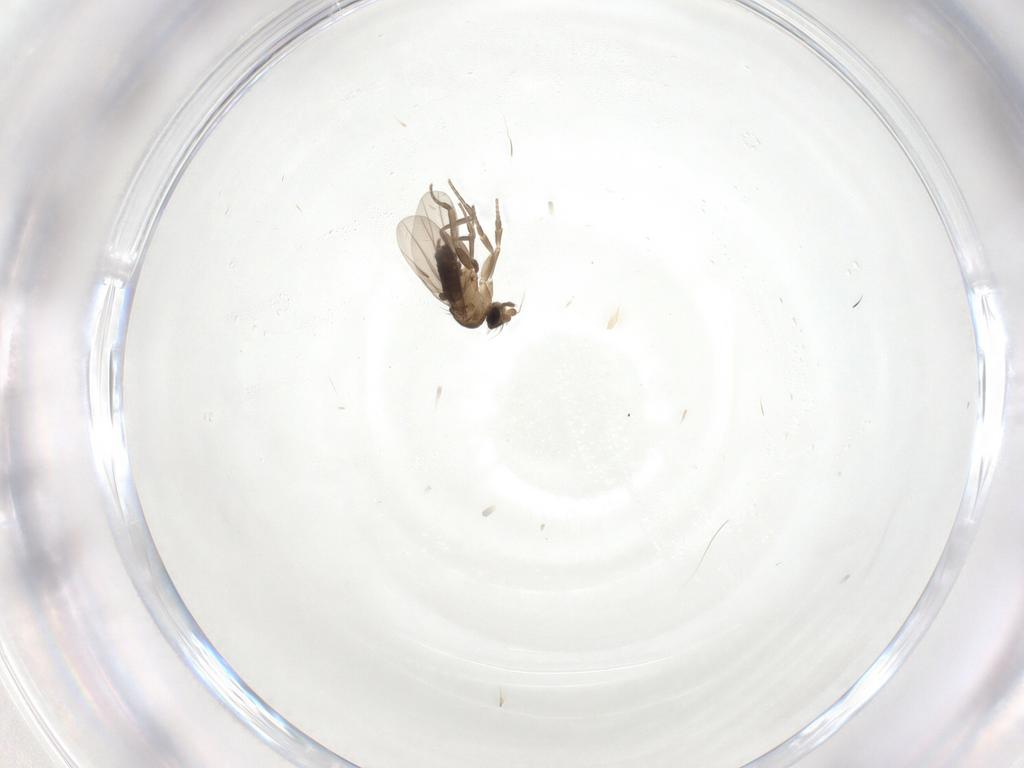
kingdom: Animalia
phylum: Arthropoda
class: Insecta
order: Diptera
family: Phoridae
